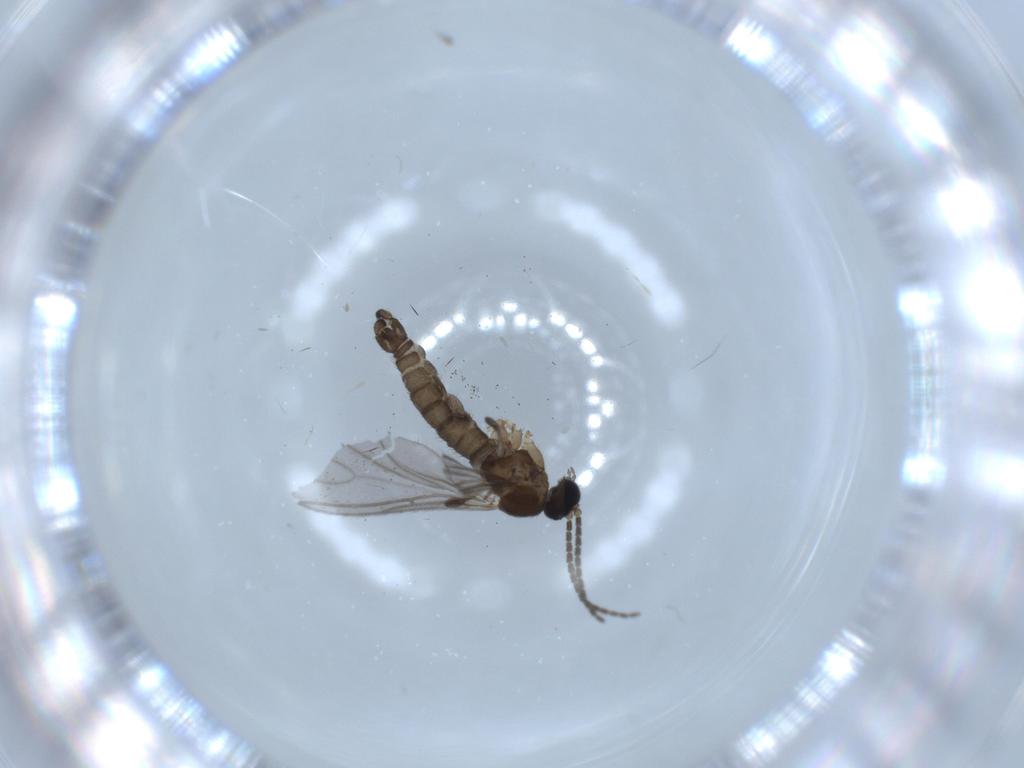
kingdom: Animalia
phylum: Arthropoda
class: Insecta
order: Diptera
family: Sciaridae
